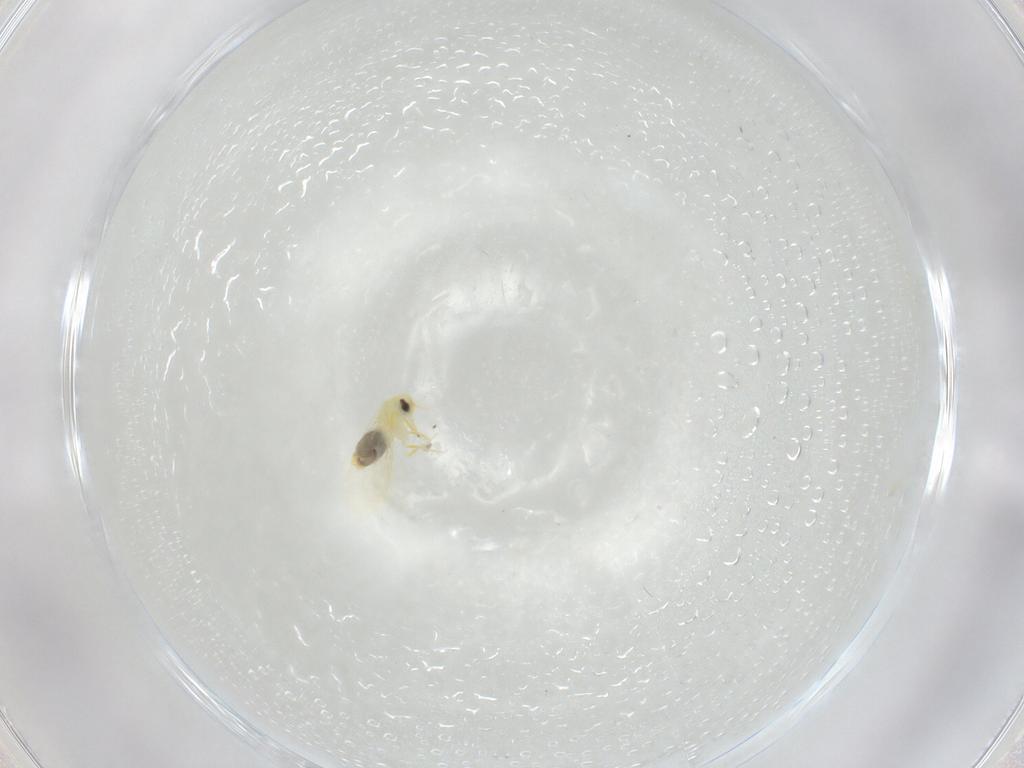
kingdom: Animalia
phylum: Arthropoda
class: Insecta
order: Hemiptera
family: Aleyrodidae
